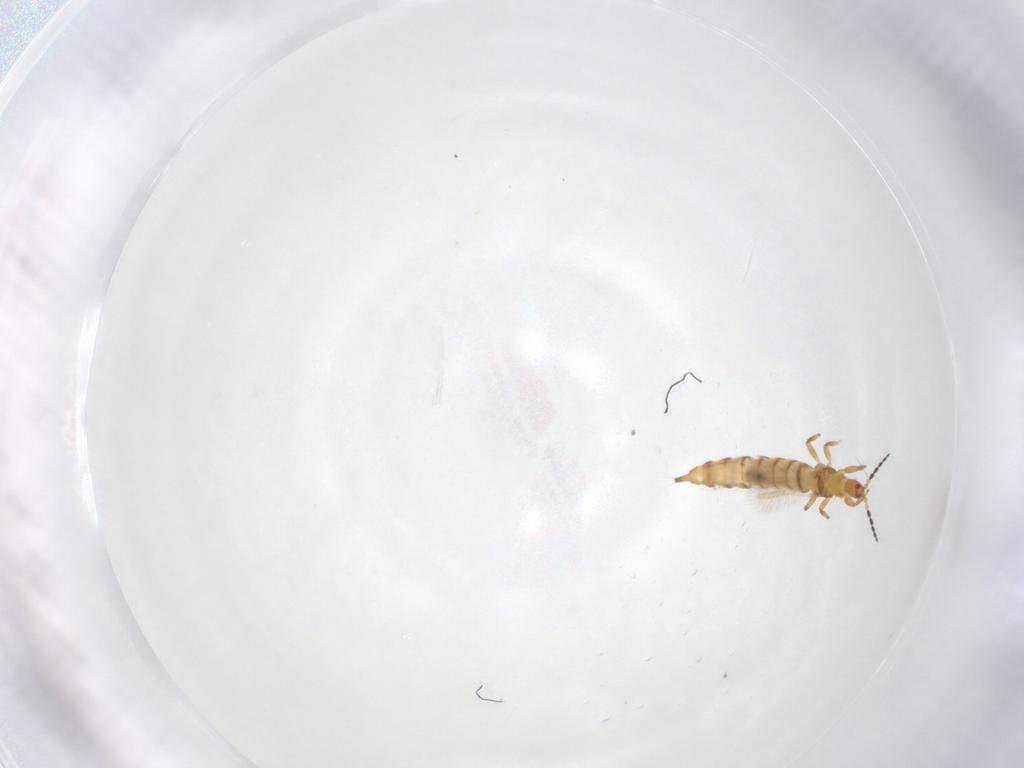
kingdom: Animalia
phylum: Arthropoda
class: Insecta
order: Thysanoptera
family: Phlaeothripidae
